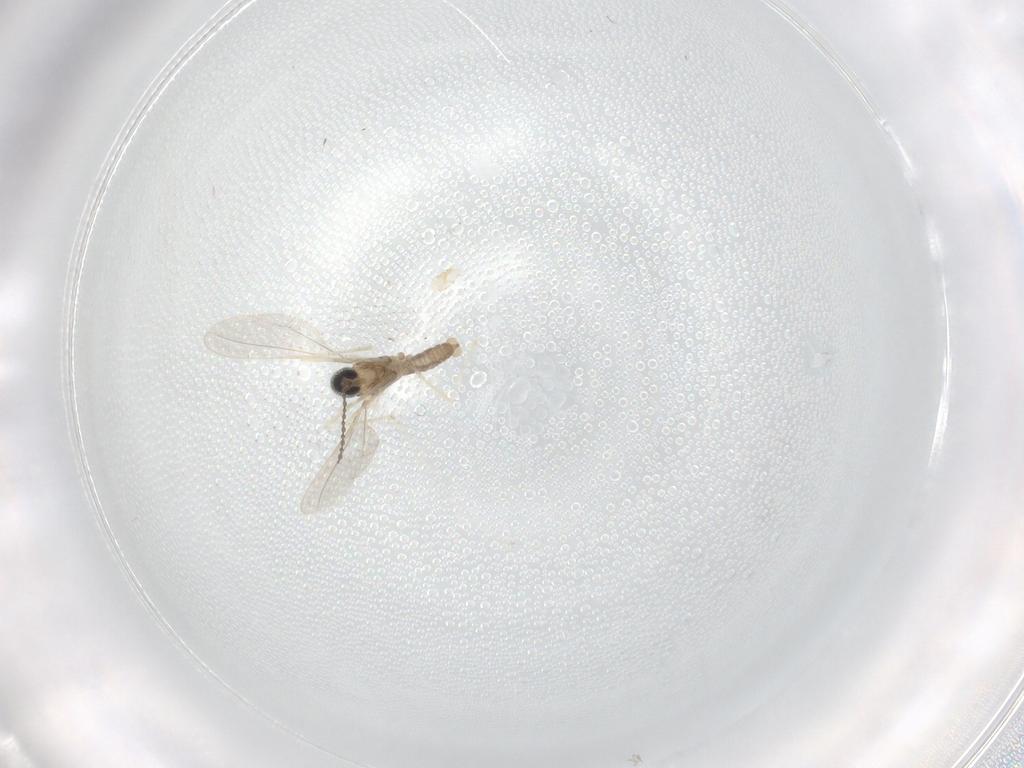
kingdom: Animalia
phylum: Arthropoda
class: Insecta
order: Diptera
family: Cecidomyiidae
